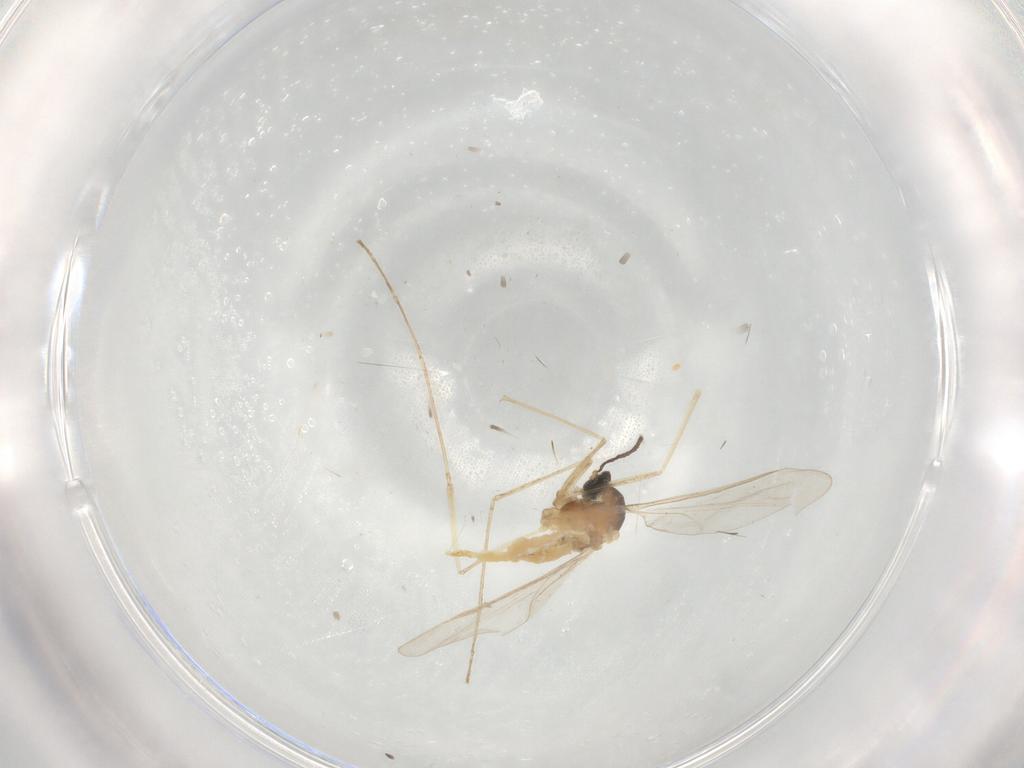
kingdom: Animalia
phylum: Arthropoda
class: Insecta
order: Diptera
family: Cecidomyiidae
